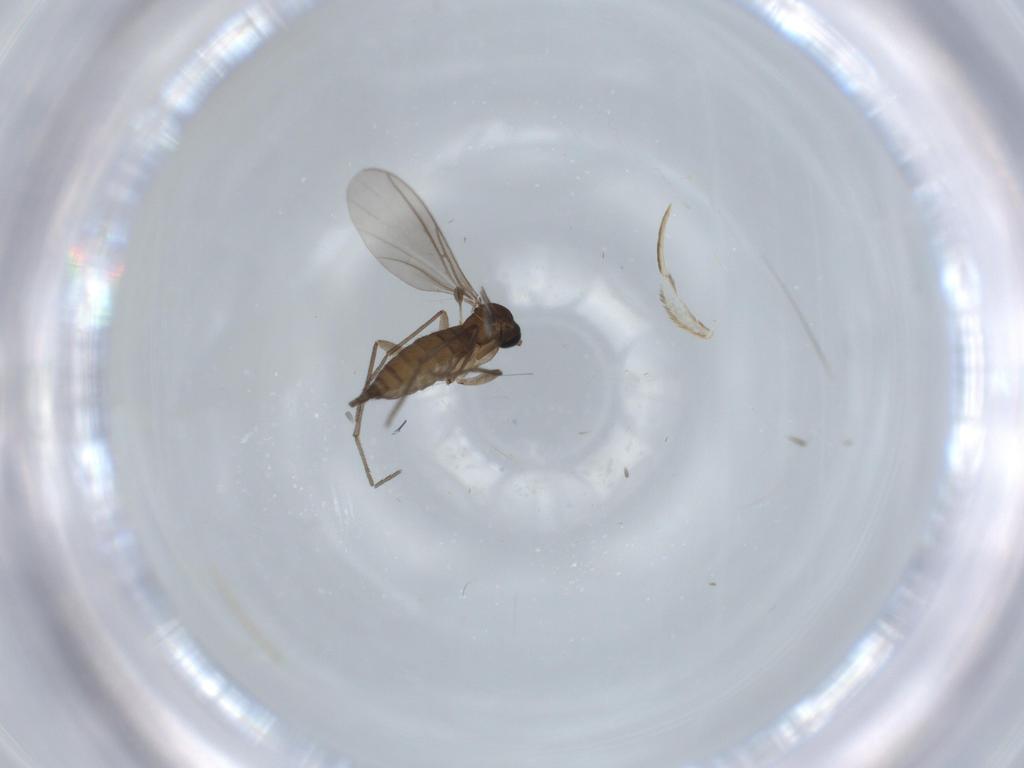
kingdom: Animalia
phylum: Arthropoda
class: Insecta
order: Diptera
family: Sciaridae
